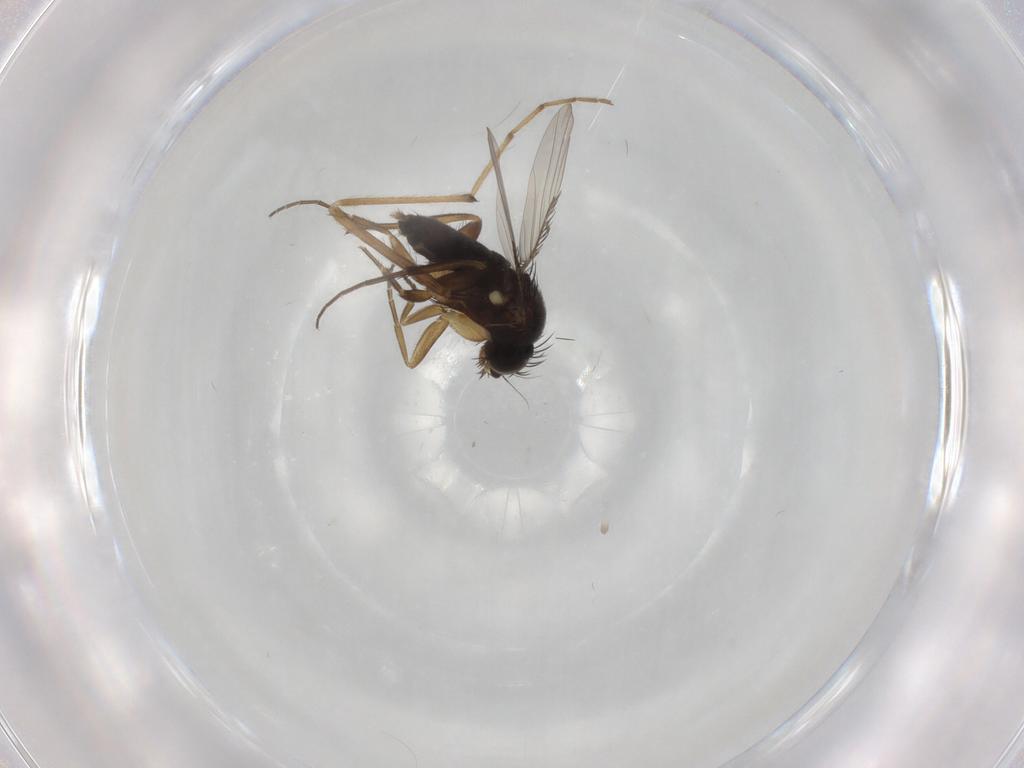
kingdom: Animalia
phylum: Arthropoda
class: Insecta
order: Diptera
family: Phoridae
